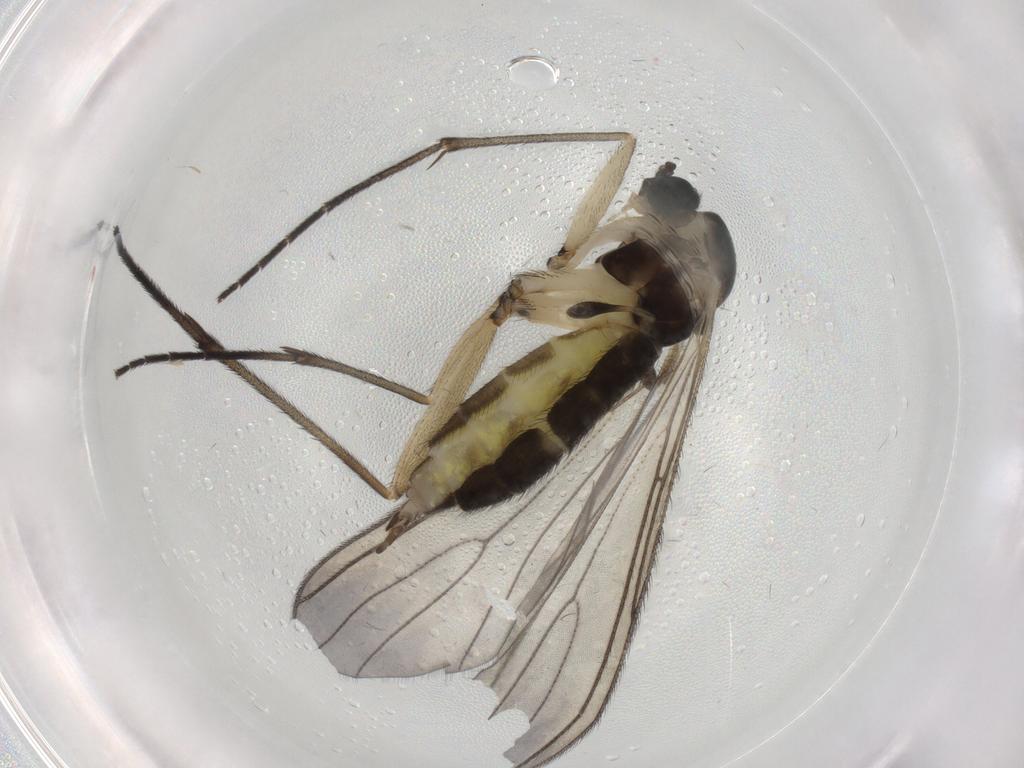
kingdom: Animalia
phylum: Arthropoda
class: Insecta
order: Diptera
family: Sciaridae
